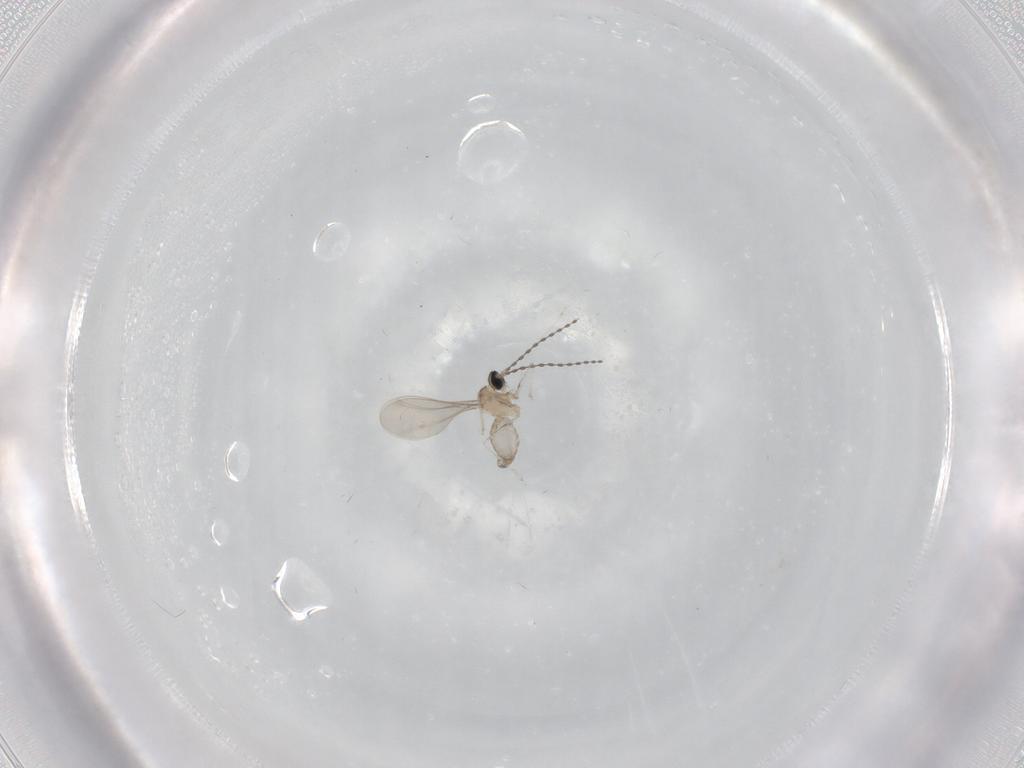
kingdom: Animalia
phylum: Arthropoda
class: Insecta
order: Diptera
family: Cecidomyiidae
